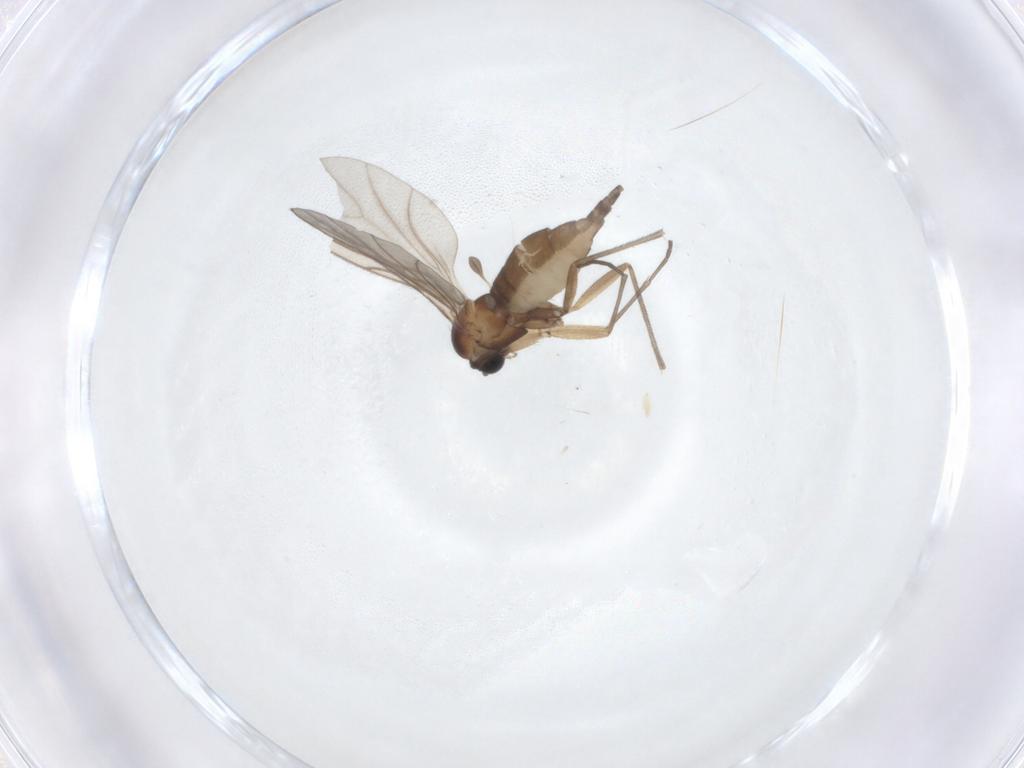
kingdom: Animalia
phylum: Arthropoda
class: Insecta
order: Diptera
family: Sciaridae
